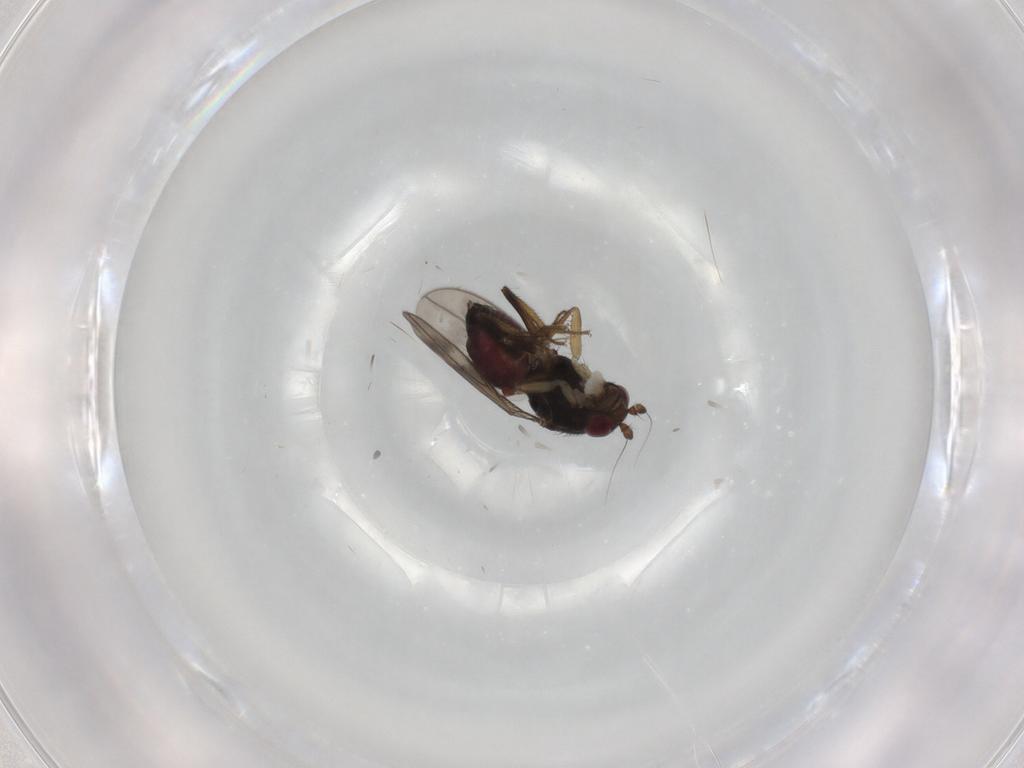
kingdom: Animalia
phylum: Arthropoda
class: Insecta
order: Diptera
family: Sphaeroceridae
